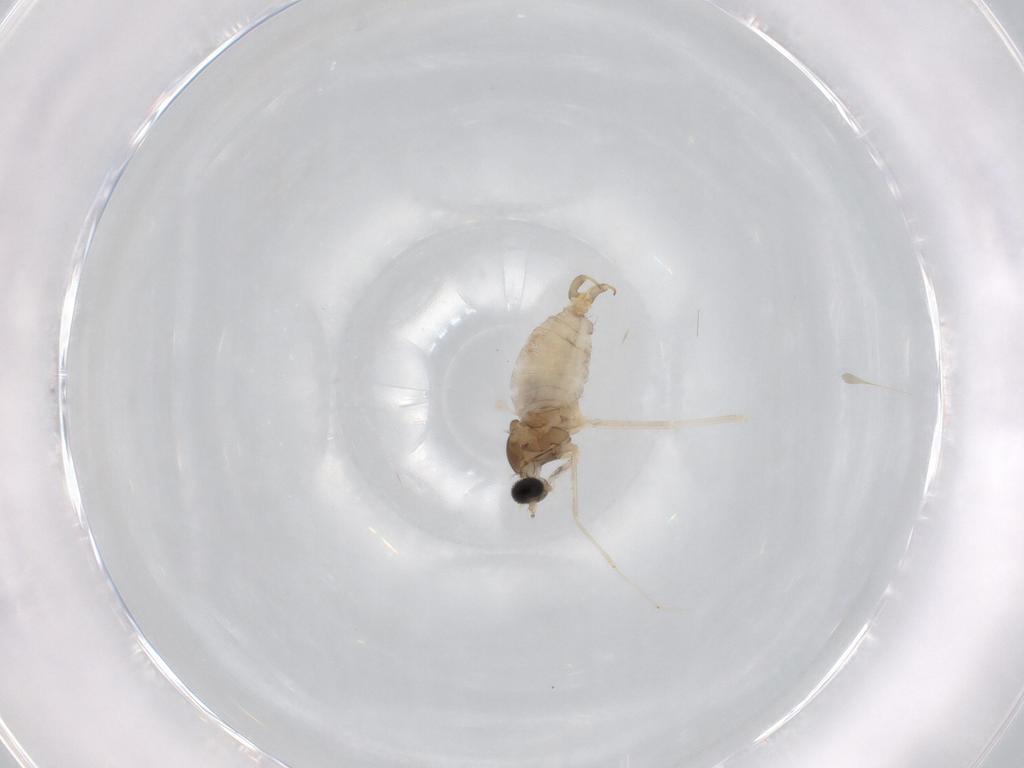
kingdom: Animalia
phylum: Arthropoda
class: Insecta
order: Diptera
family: Cecidomyiidae
